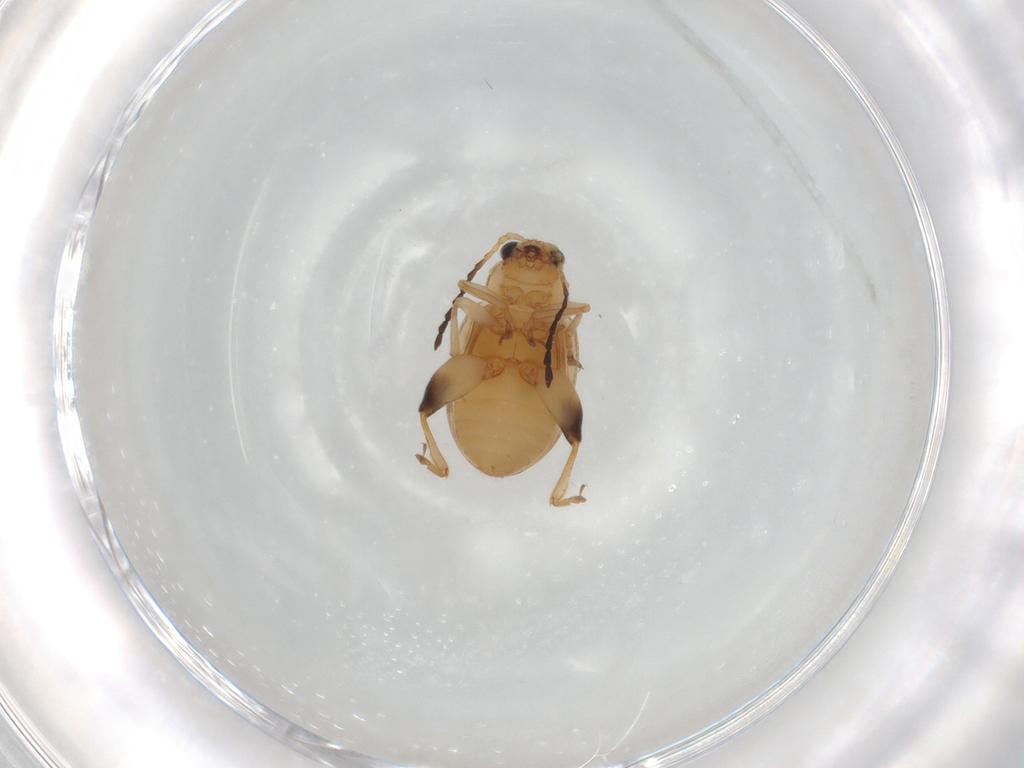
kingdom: Animalia
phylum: Arthropoda
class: Insecta
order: Coleoptera
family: Chrysomelidae
